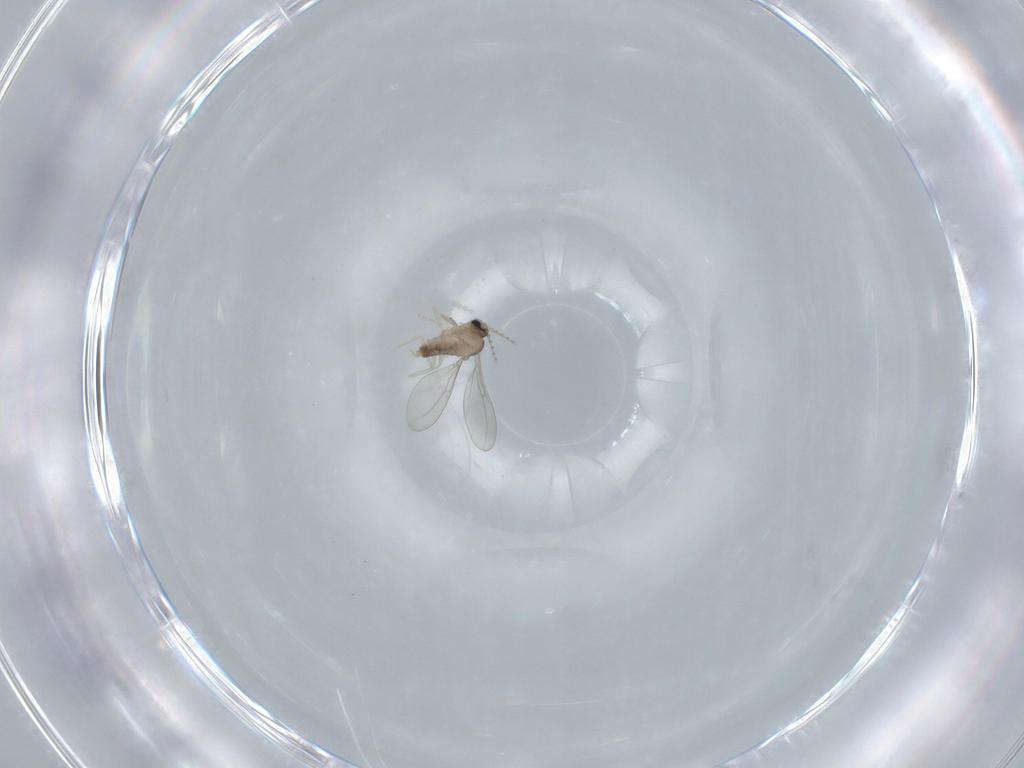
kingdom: Animalia
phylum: Arthropoda
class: Insecta
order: Diptera
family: Cecidomyiidae
